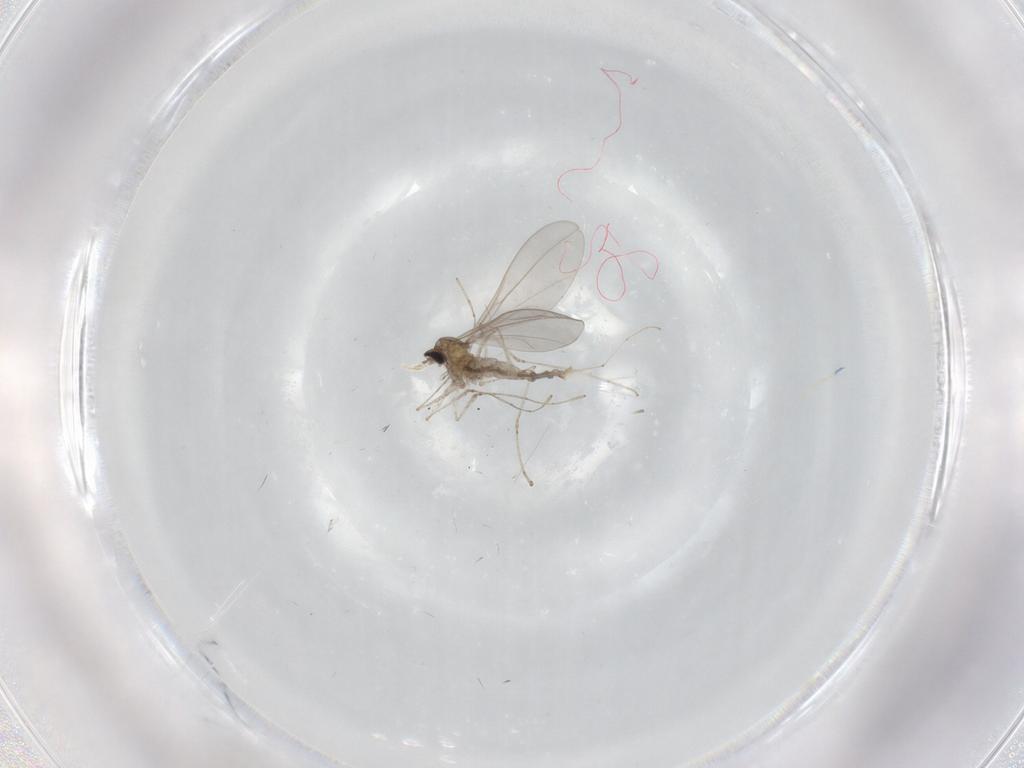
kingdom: Animalia
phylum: Arthropoda
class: Insecta
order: Diptera
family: Cecidomyiidae
